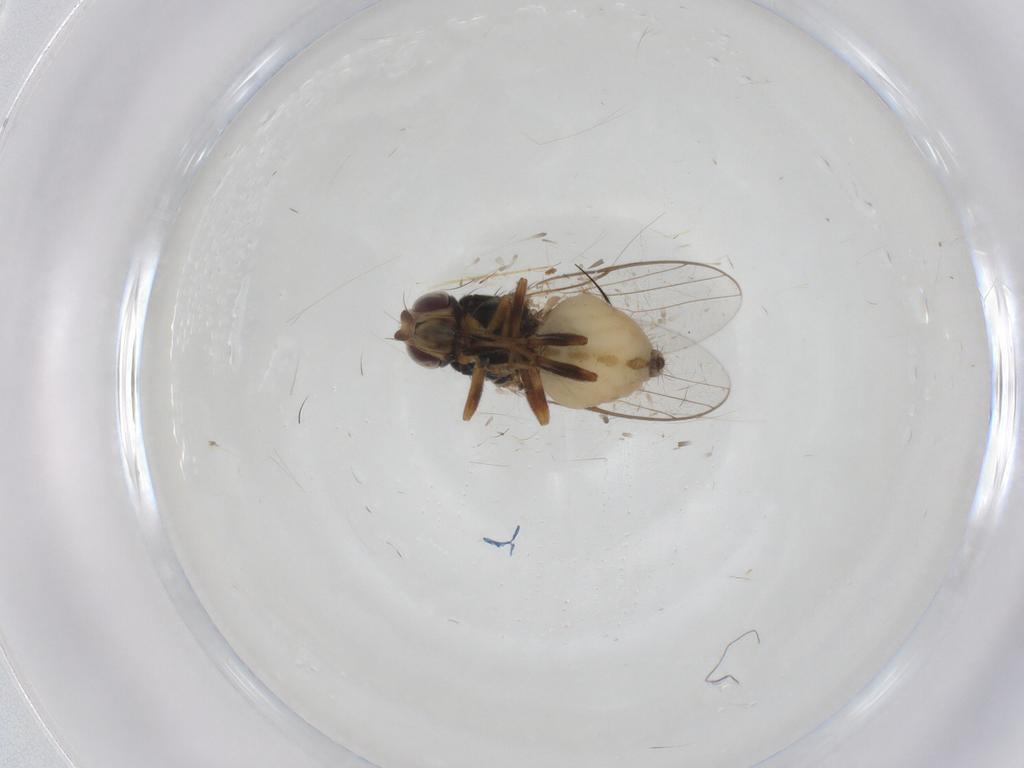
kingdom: Animalia
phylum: Arthropoda
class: Insecta
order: Diptera
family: Chloropidae
